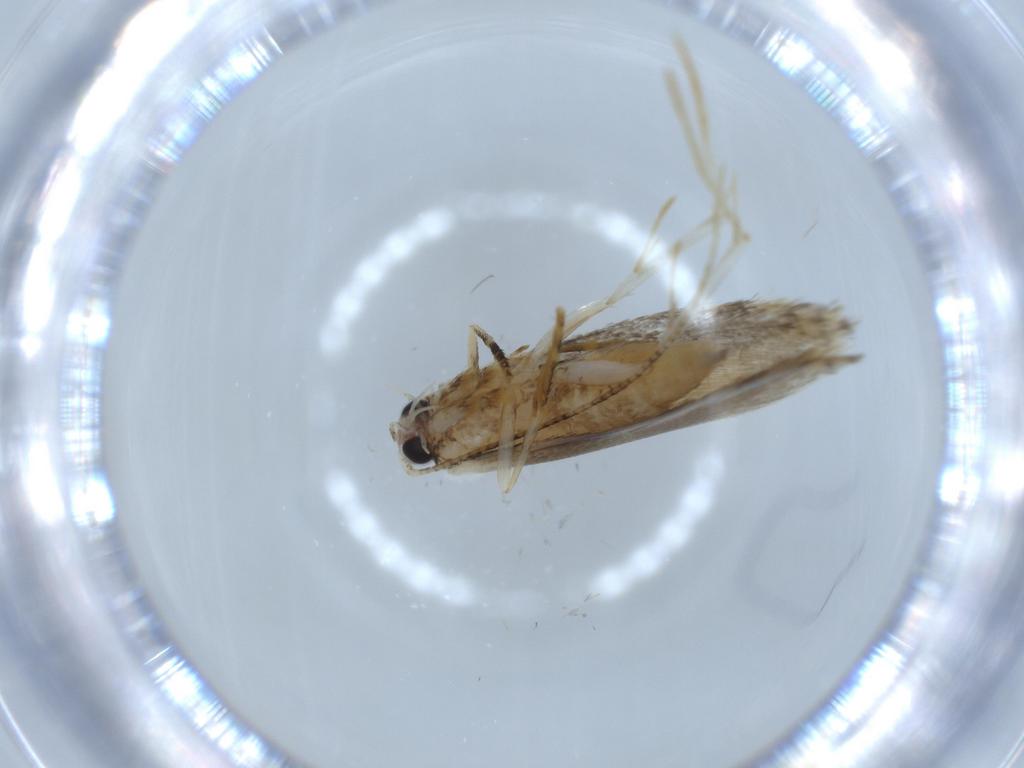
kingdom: Animalia
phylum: Arthropoda
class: Insecta
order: Lepidoptera
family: Tineidae
